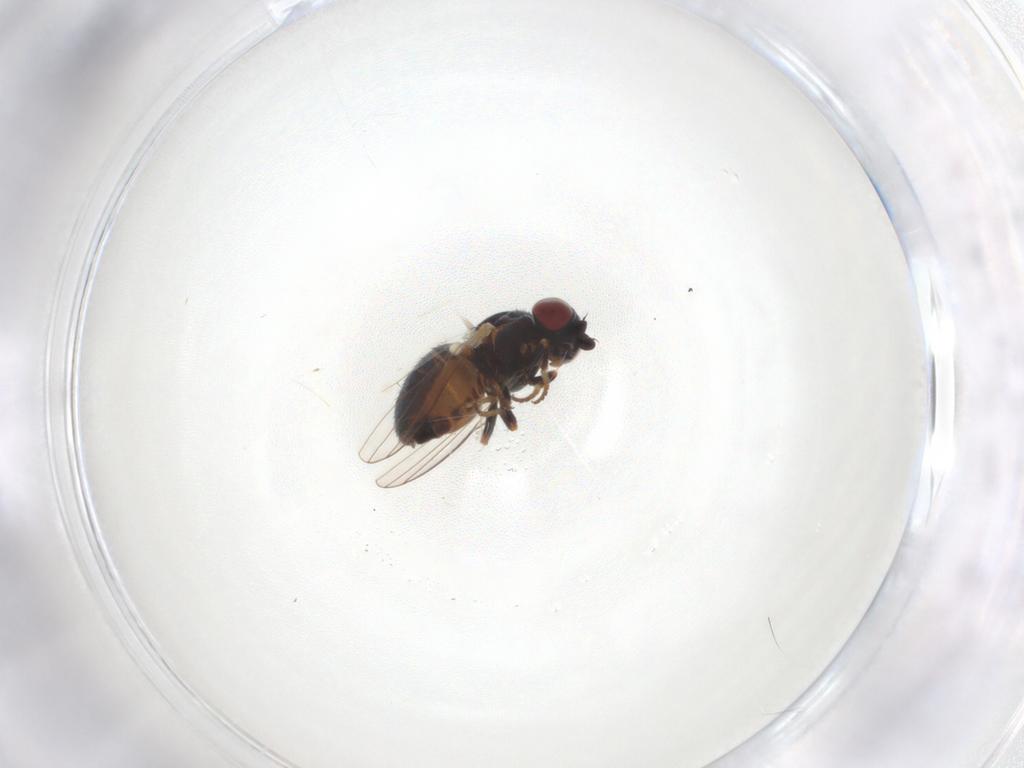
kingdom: Animalia
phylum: Arthropoda
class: Insecta
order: Diptera
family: Chamaemyiidae
